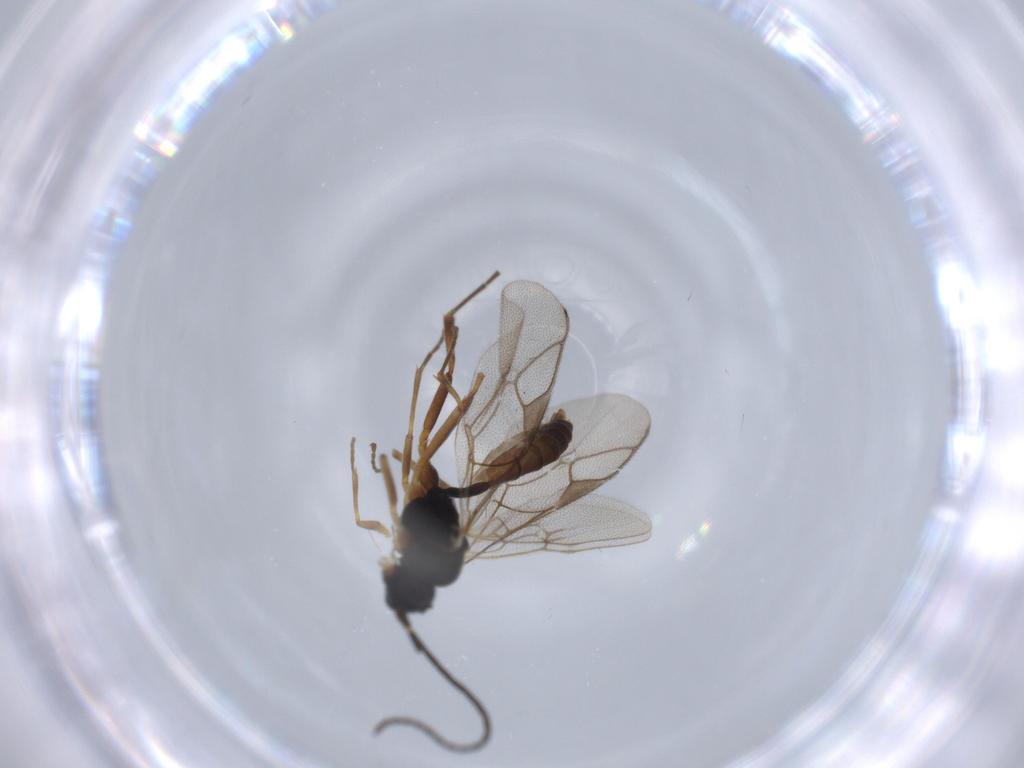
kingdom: Animalia
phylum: Arthropoda
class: Insecta
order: Hymenoptera
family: Ichneumonidae
